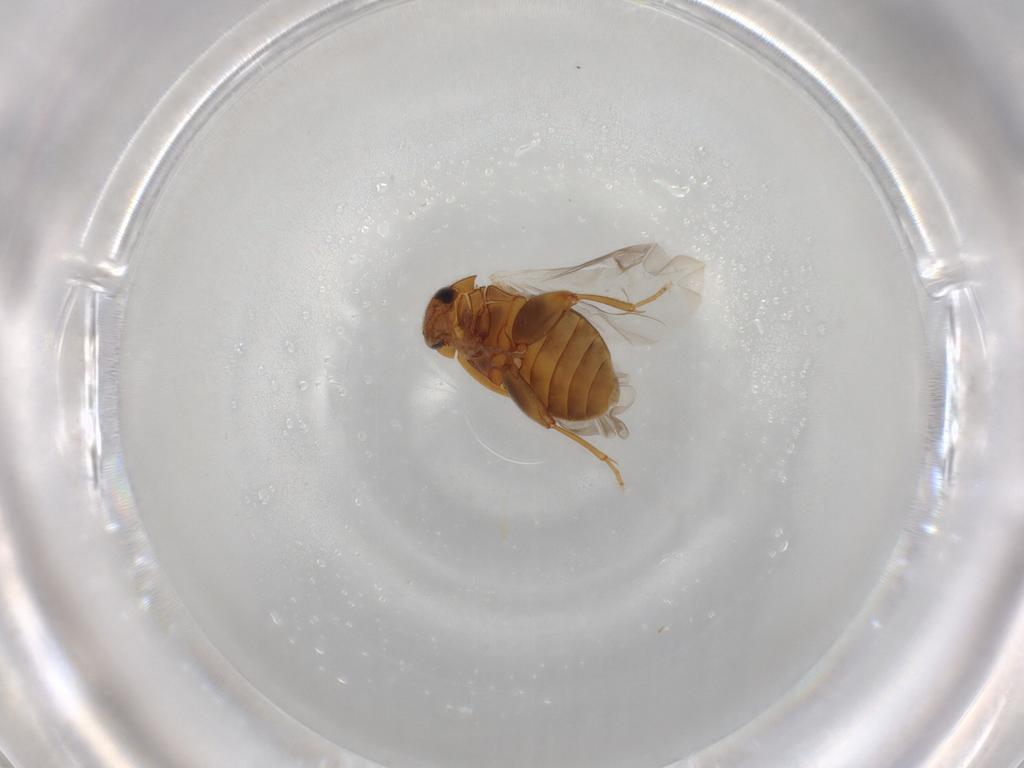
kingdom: Animalia
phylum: Arthropoda
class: Insecta
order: Coleoptera
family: Scirtidae
